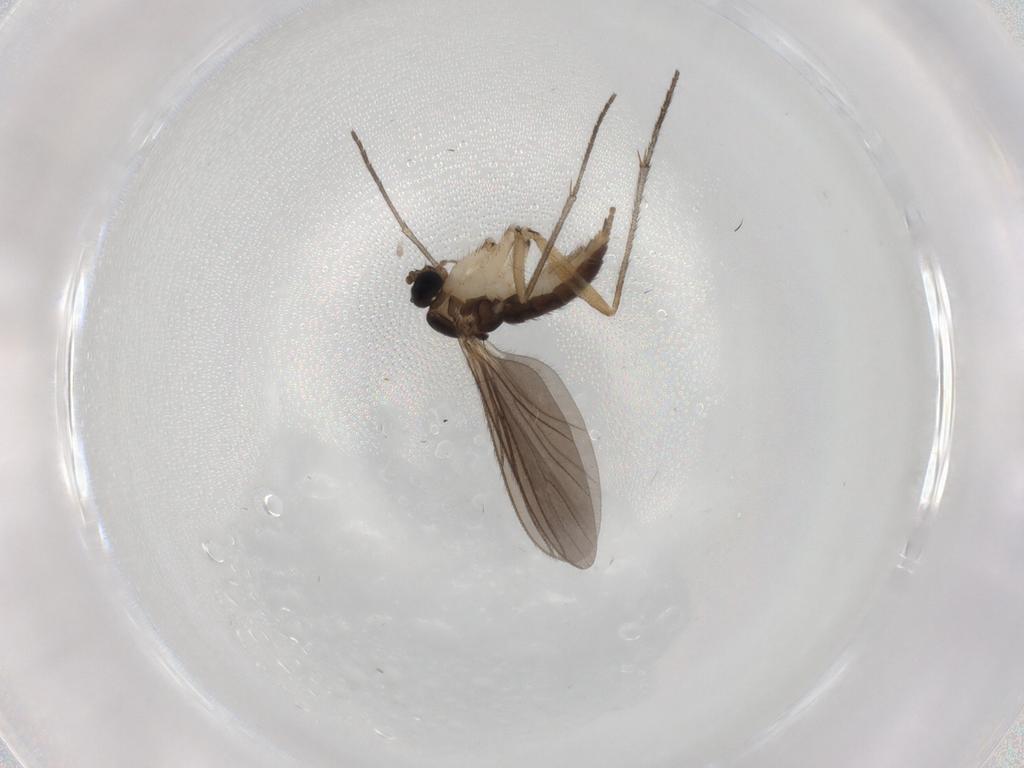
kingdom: Animalia
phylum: Arthropoda
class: Insecta
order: Diptera
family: Sciaridae
